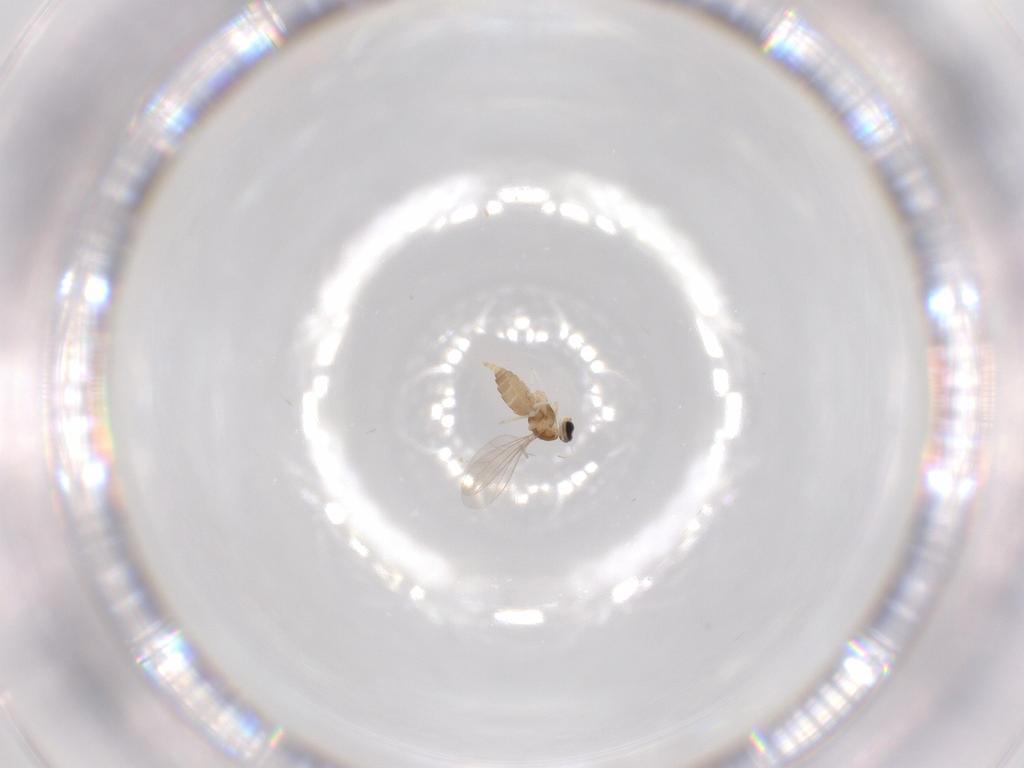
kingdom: Animalia
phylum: Arthropoda
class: Insecta
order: Diptera
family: Cecidomyiidae
